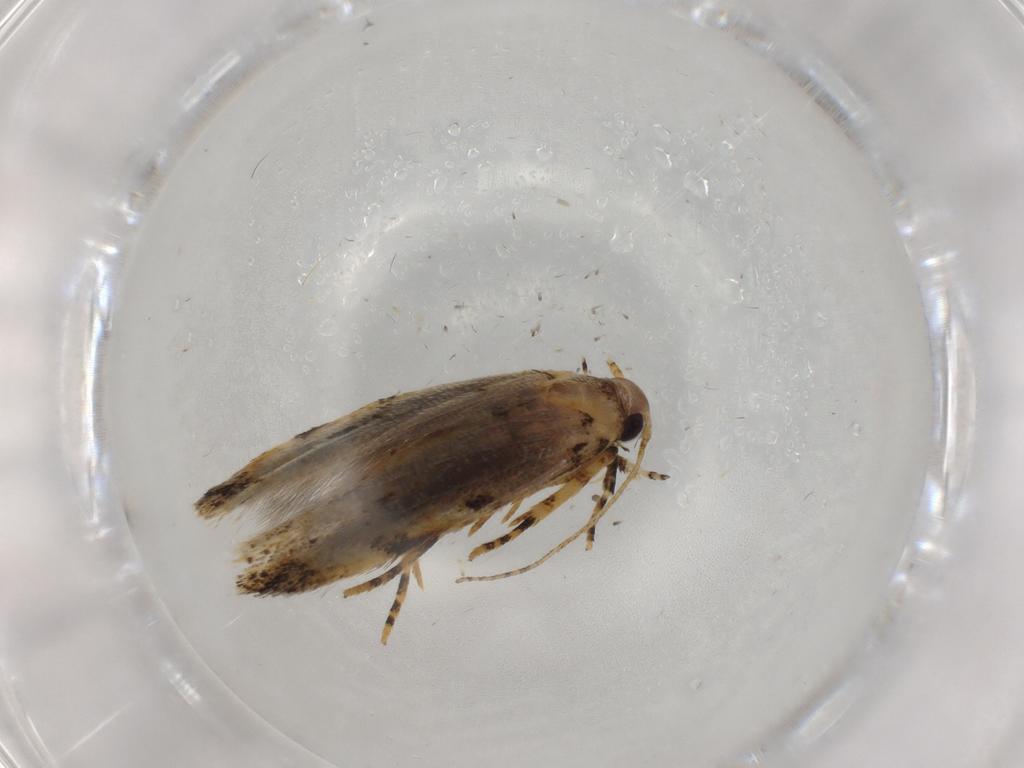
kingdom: Animalia
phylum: Arthropoda
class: Insecta
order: Lepidoptera
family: Gelechiidae
